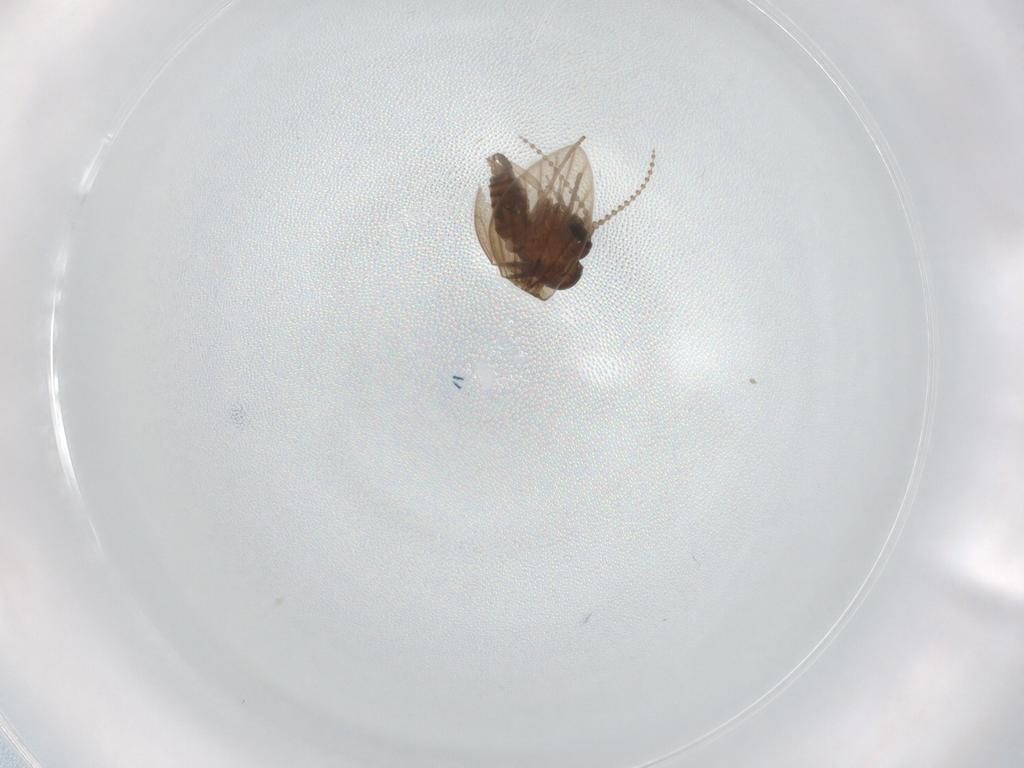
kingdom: Animalia
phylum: Arthropoda
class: Insecta
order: Diptera
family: Psychodidae
